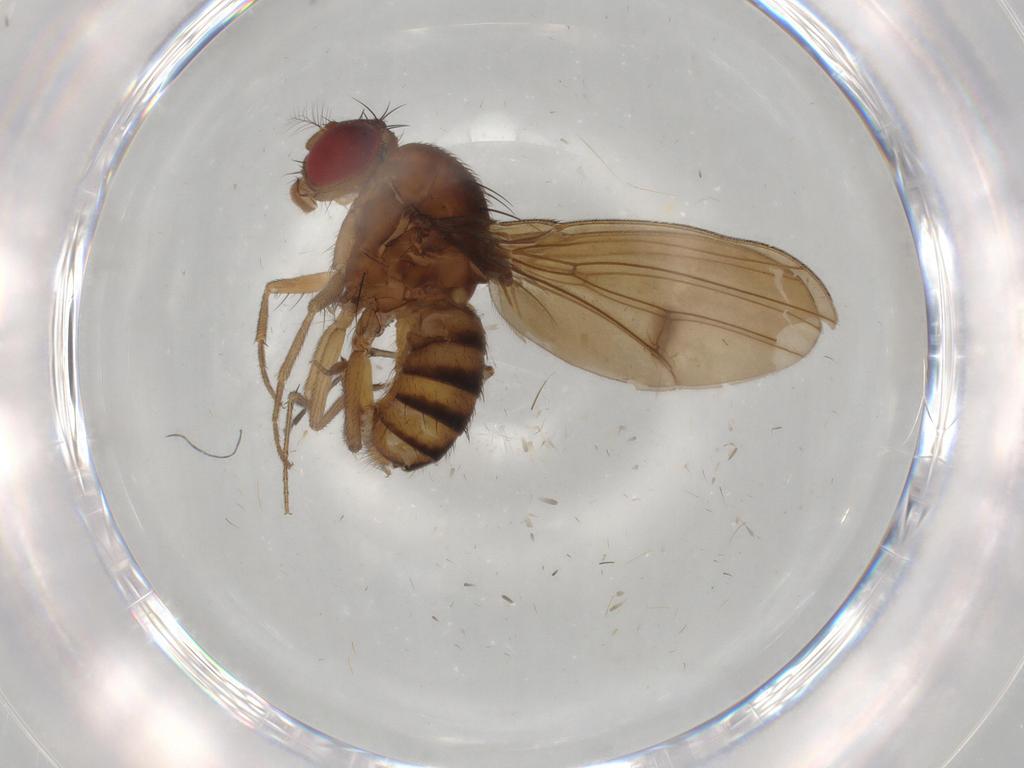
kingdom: Animalia
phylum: Arthropoda
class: Insecta
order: Diptera
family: Drosophilidae
